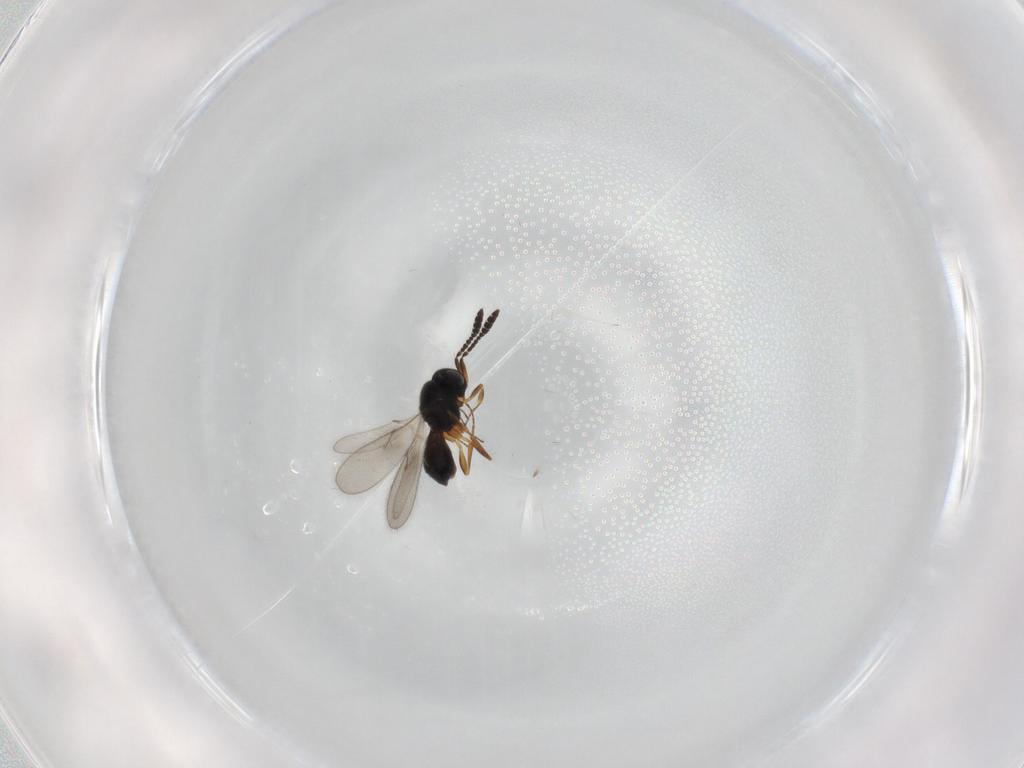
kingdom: Animalia
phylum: Arthropoda
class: Insecta
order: Hymenoptera
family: Scelionidae
